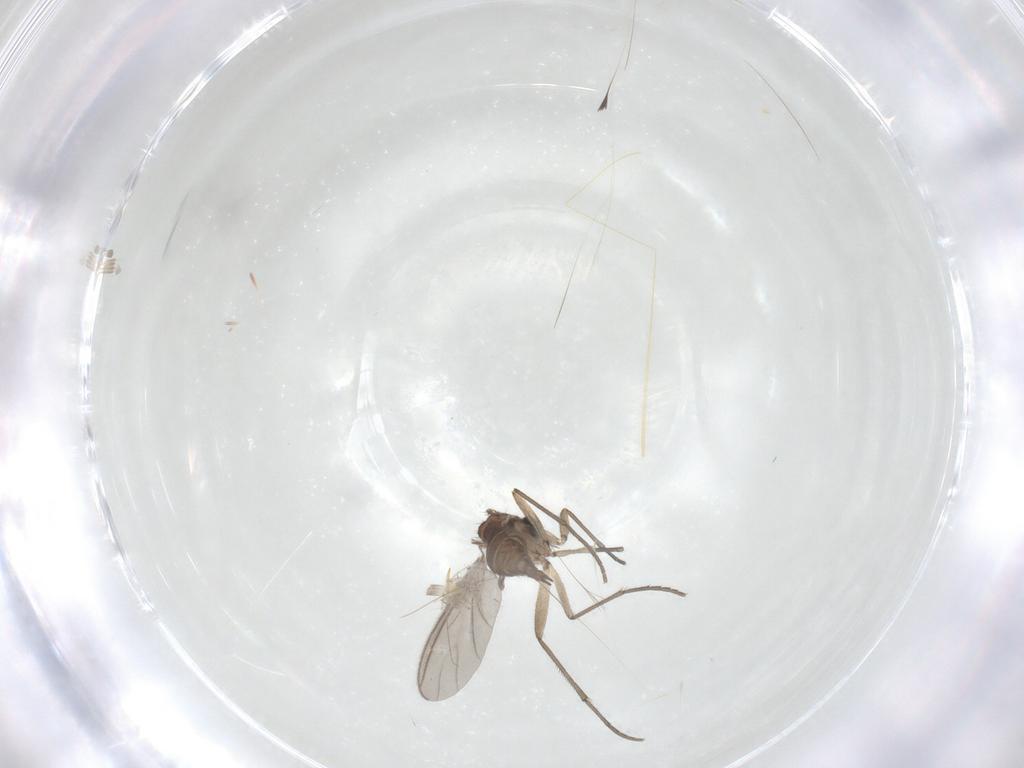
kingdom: Animalia
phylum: Arthropoda
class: Insecta
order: Diptera
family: Sciaridae
